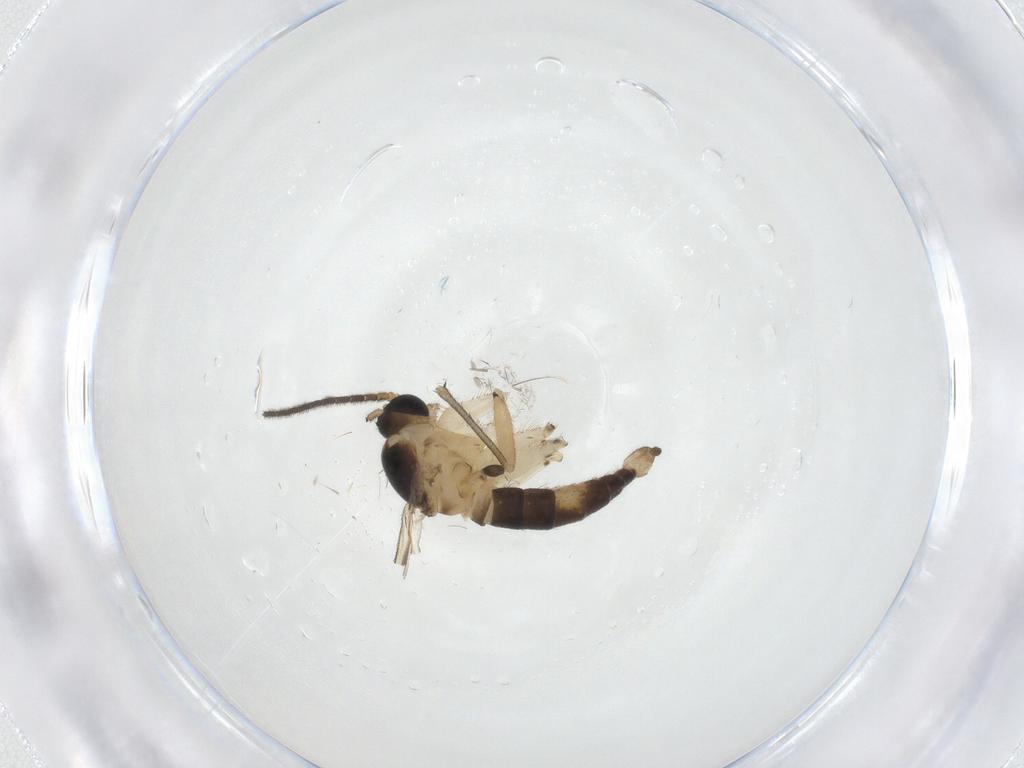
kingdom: Animalia
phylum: Arthropoda
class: Insecta
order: Diptera
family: Sciaridae
